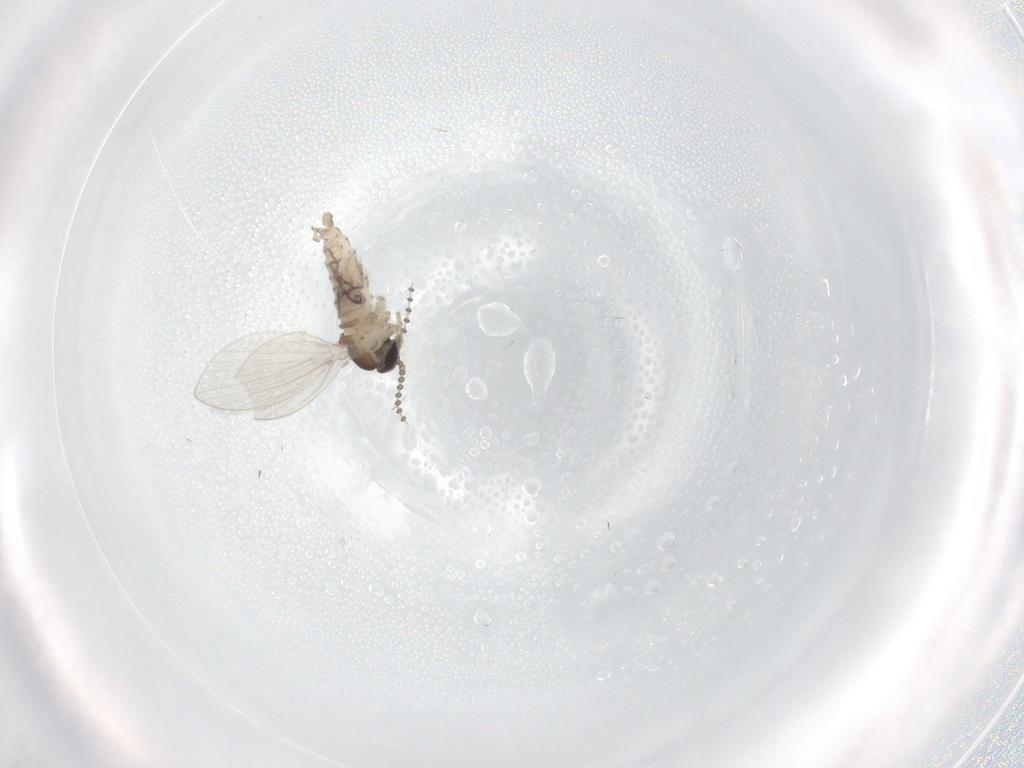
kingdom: Animalia
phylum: Arthropoda
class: Insecta
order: Diptera
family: Psychodidae
